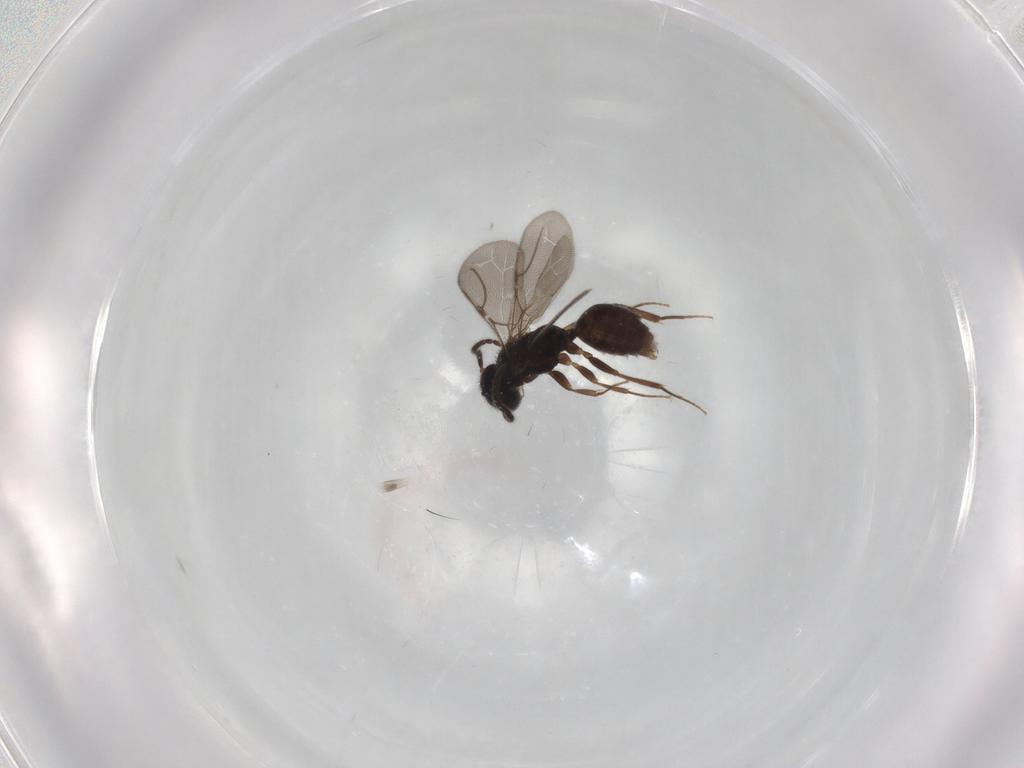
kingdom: Animalia
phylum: Arthropoda
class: Insecta
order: Hymenoptera
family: Bethylidae
